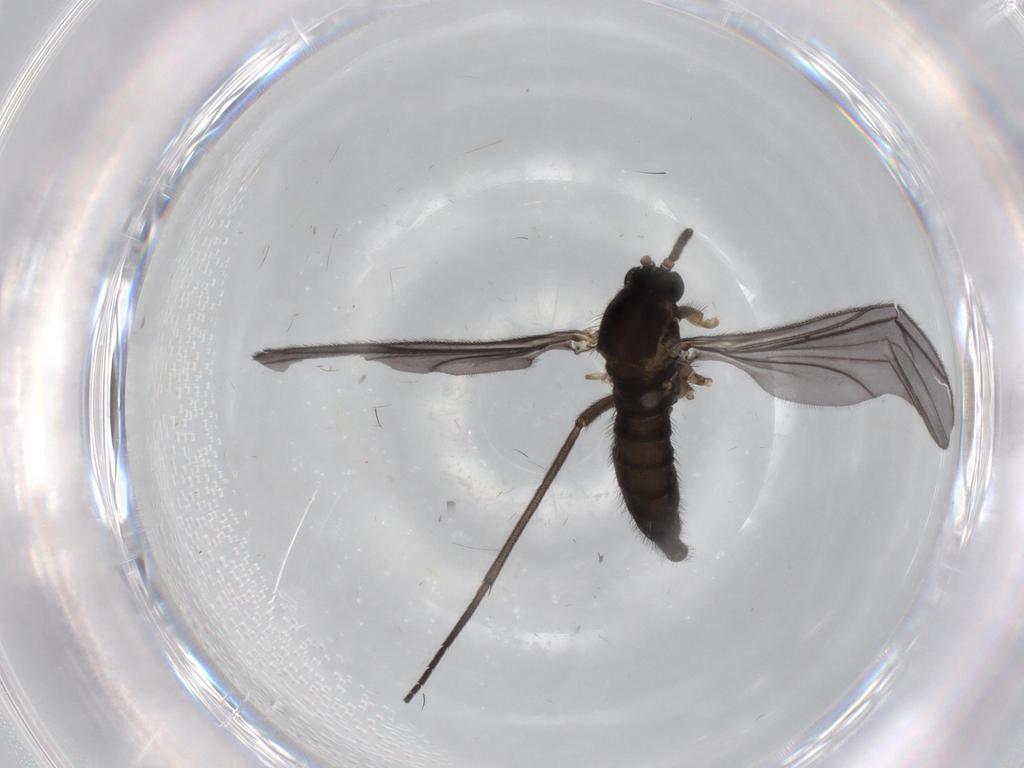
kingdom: Animalia
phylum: Arthropoda
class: Insecta
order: Diptera
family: Sciaridae
